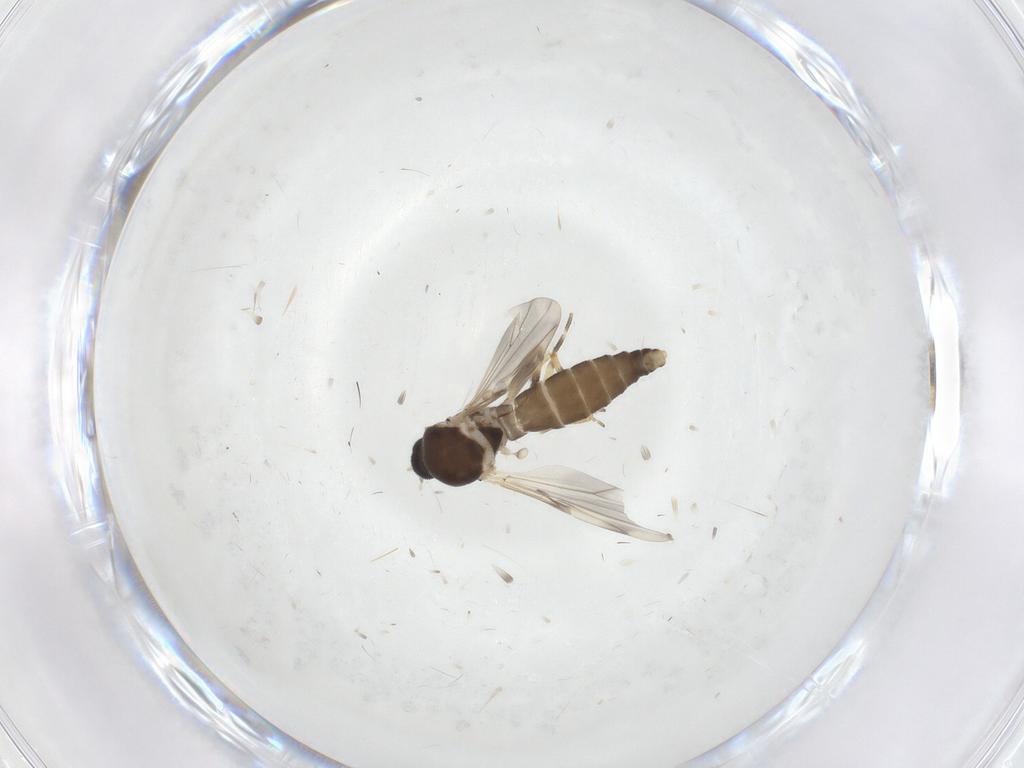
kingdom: Animalia
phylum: Arthropoda
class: Insecta
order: Diptera
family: Ceratopogonidae
